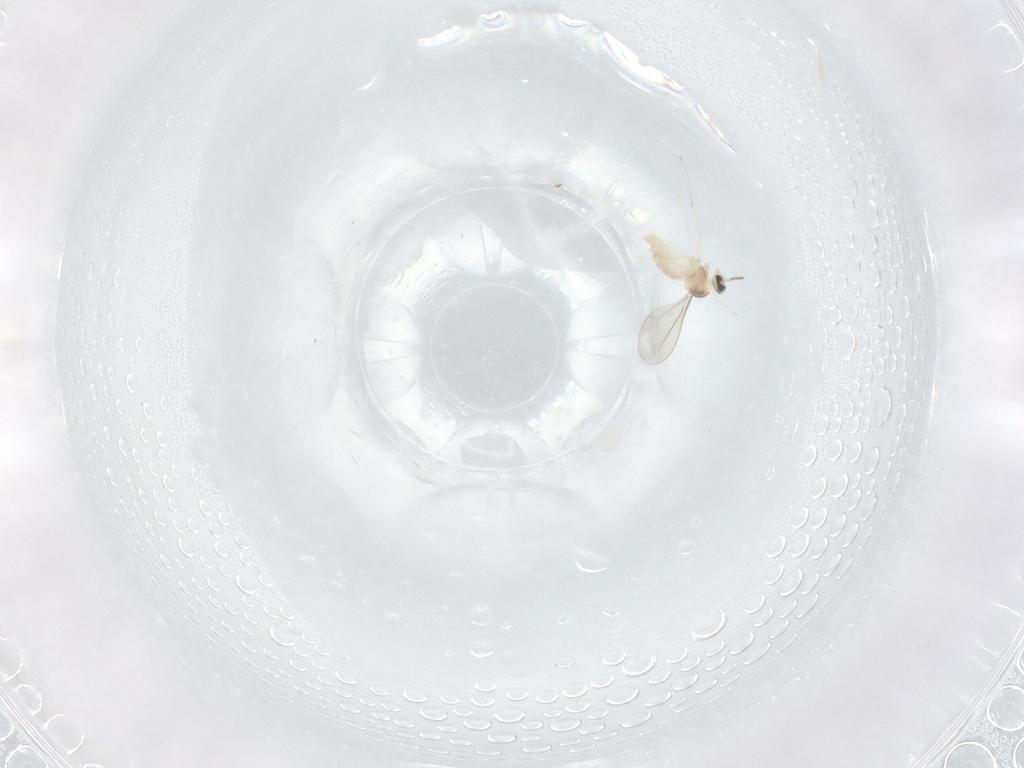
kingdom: Animalia
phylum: Arthropoda
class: Insecta
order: Diptera
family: Cecidomyiidae
